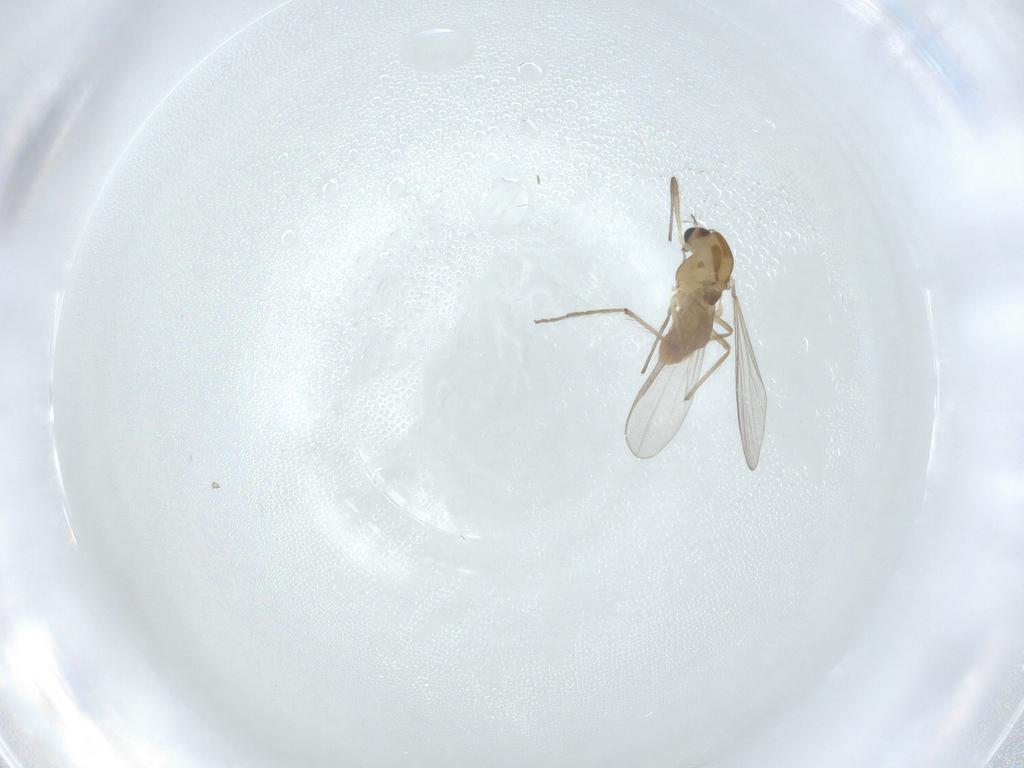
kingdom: Animalia
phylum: Arthropoda
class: Insecta
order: Diptera
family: Chironomidae
